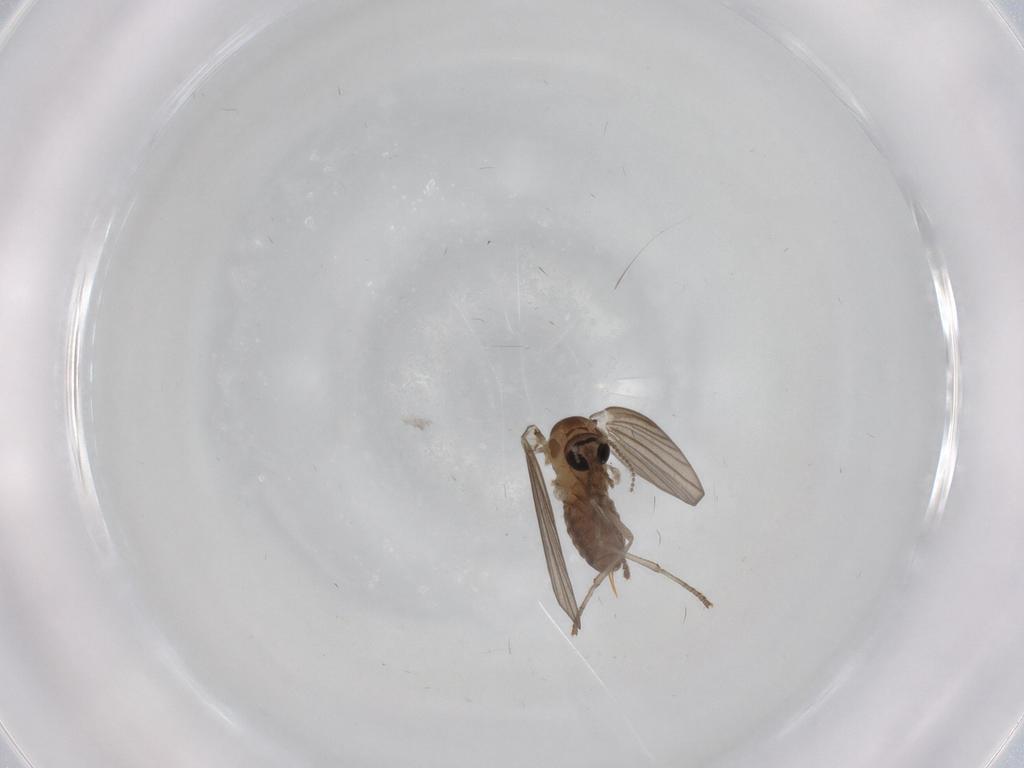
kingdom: Animalia
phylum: Arthropoda
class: Insecta
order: Diptera
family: Psychodidae
